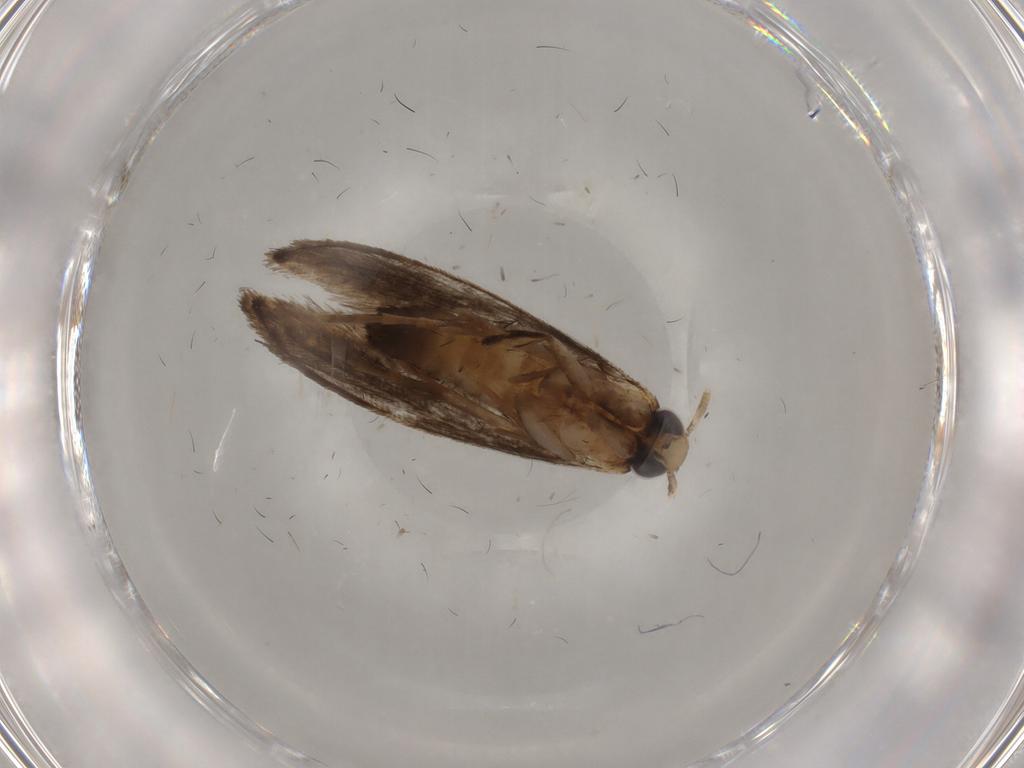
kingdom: Animalia
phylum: Arthropoda
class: Insecta
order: Lepidoptera
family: Tineidae
